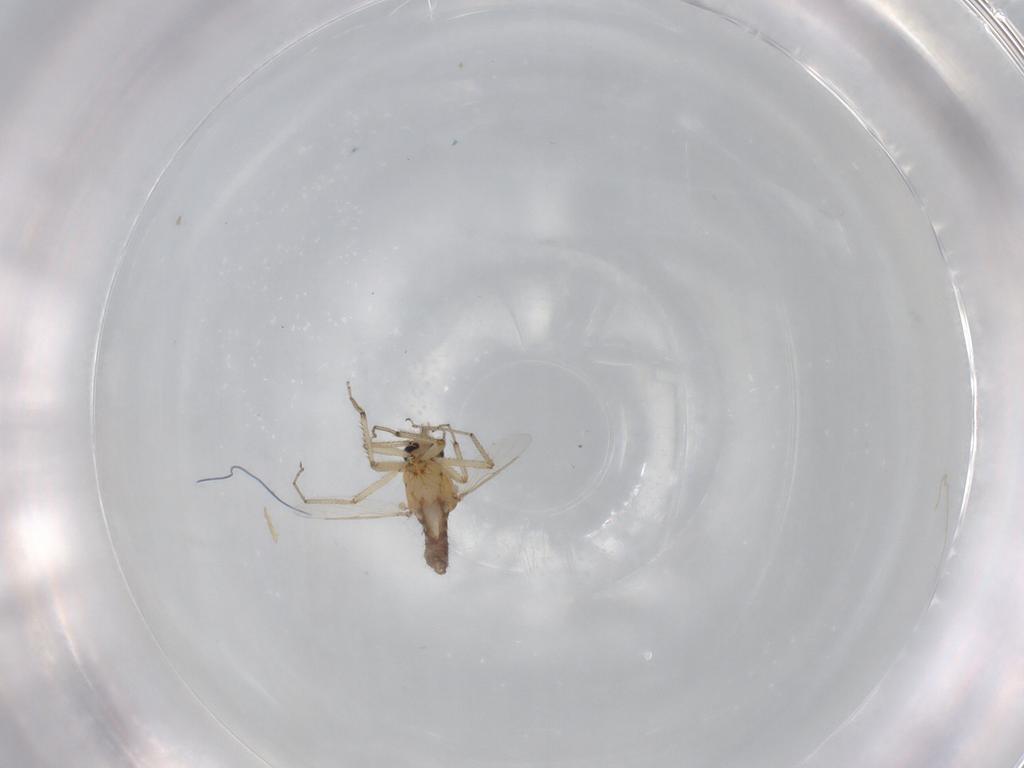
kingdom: Animalia
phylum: Arthropoda
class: Insecta
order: Diptera
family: Ceratopogonidae
